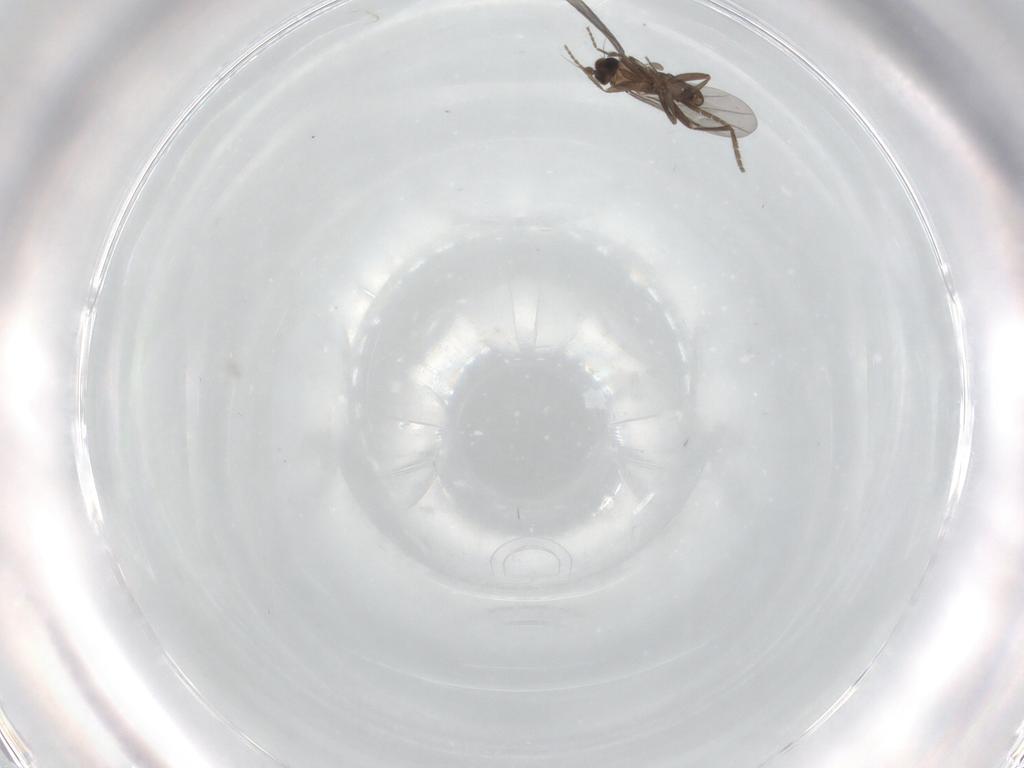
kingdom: Animalia
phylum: Arthropoda
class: Insecta
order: Diptera
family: Phoridae
